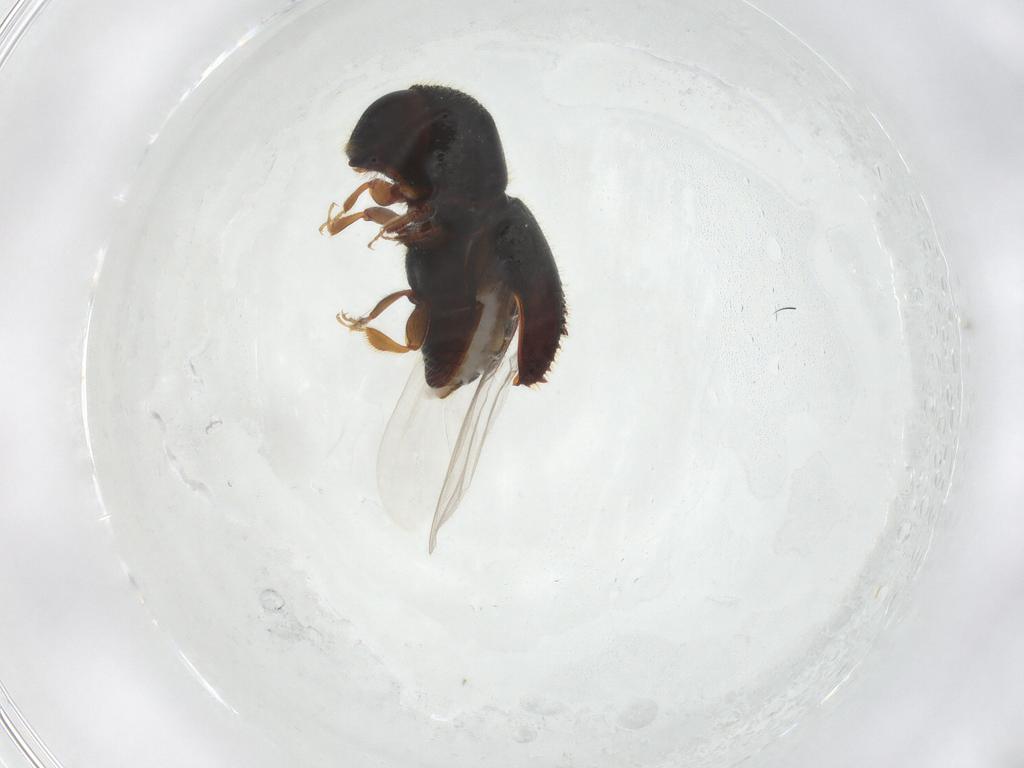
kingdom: Animalia
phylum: Arthropoda
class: Insecta
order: Coleoptera
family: Curculionidae
